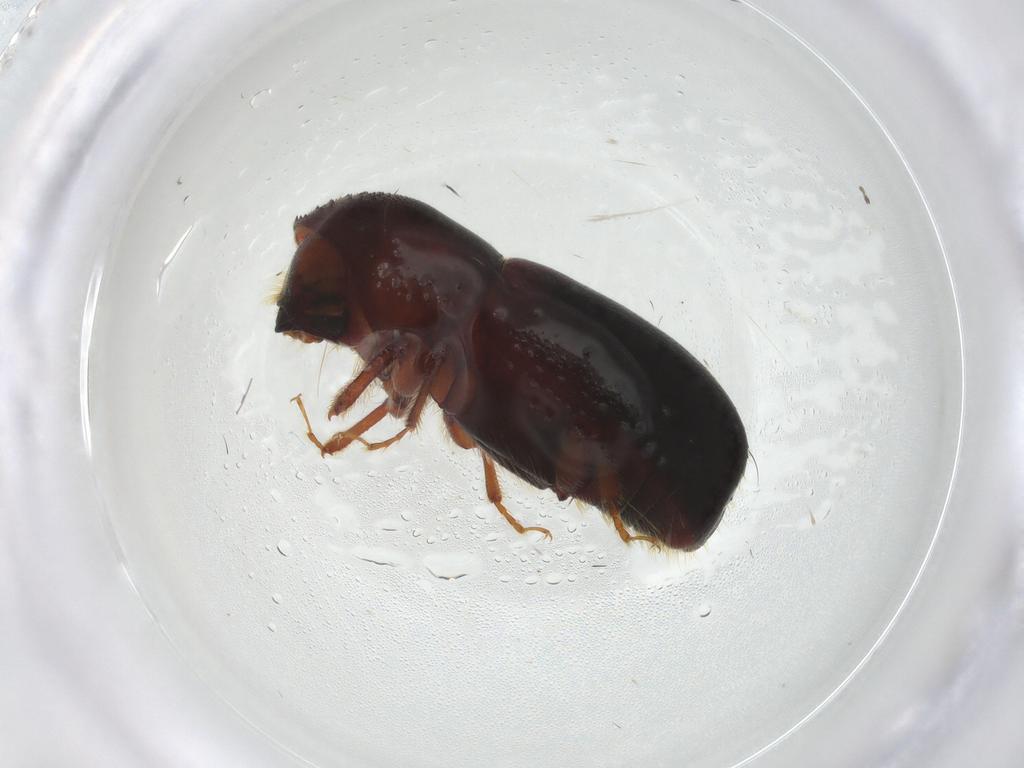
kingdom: Animalia
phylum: Arthropoda
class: Insecta
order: Coleoptera
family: Curculionidae
